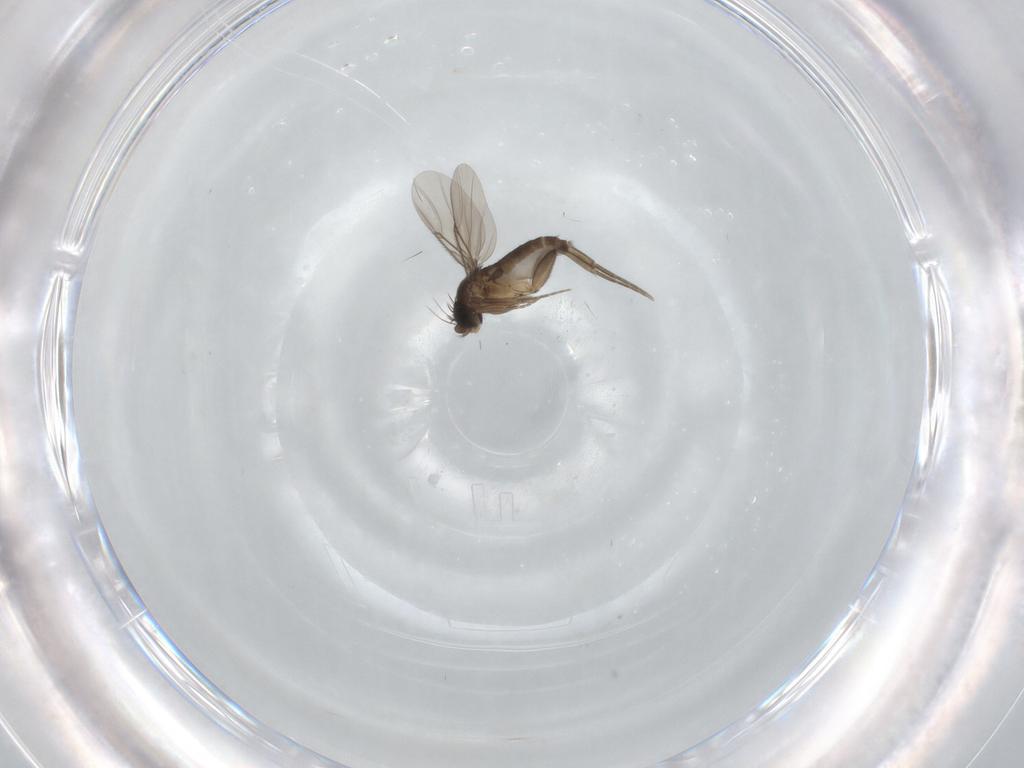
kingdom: Animalia
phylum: Arthropoda
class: Insecta
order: Diptera
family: Phoridae
